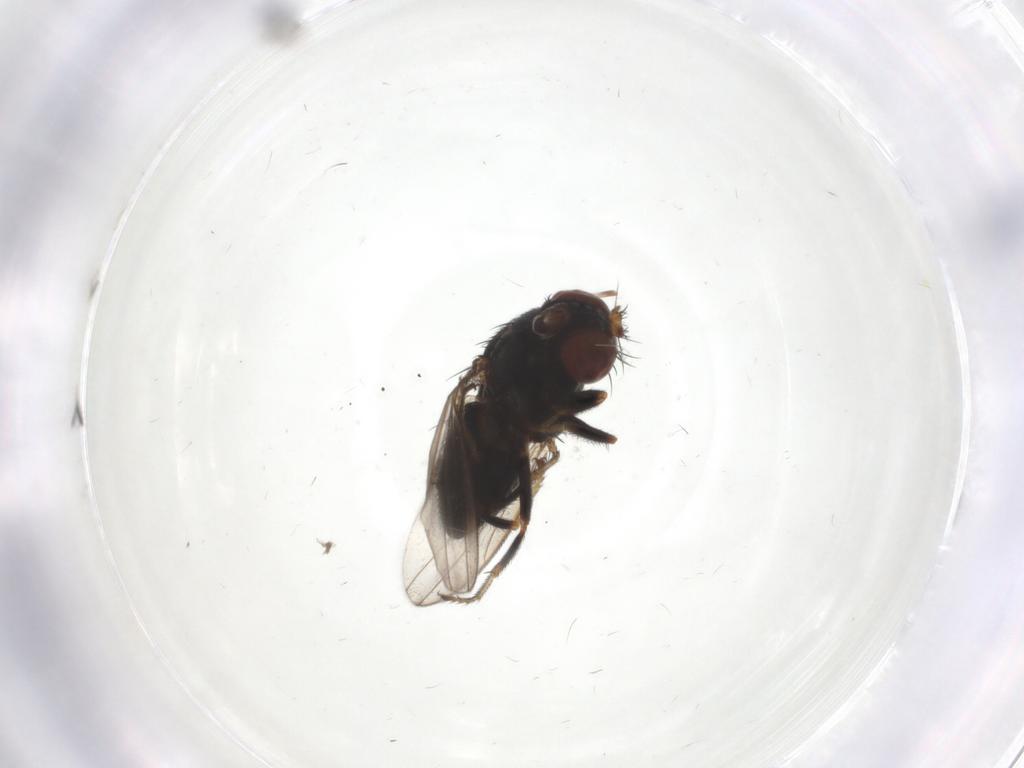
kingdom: Animalia
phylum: Arthropoda
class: Insecta
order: Diptera
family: Ephydridae
